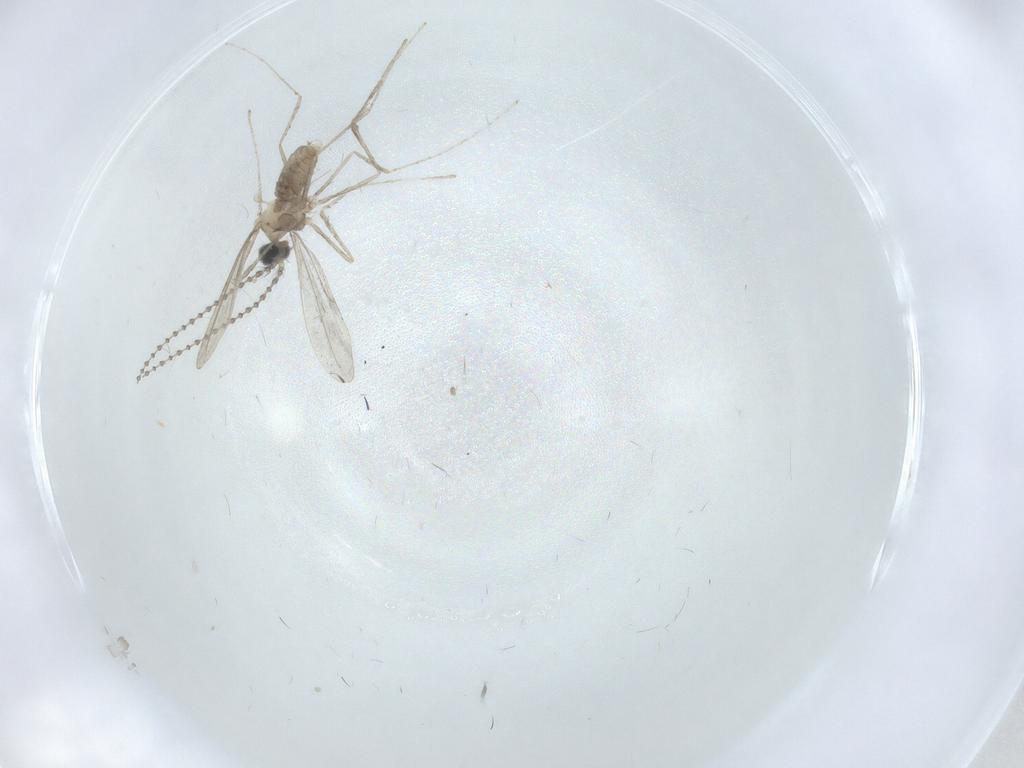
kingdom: Animalia
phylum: Arthropoda
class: Insecta
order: Diptera
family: Cecidomyiidae
